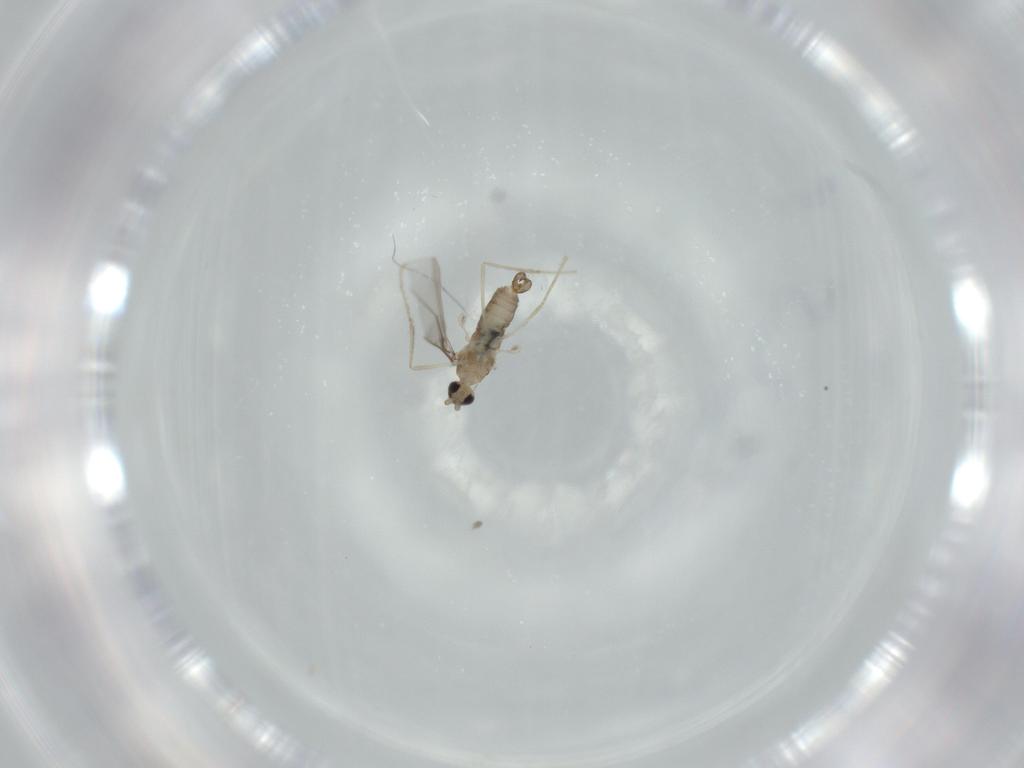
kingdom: Animalia
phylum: Arthropoda
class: Insecta
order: Diptera
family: Cecidomyiidae
